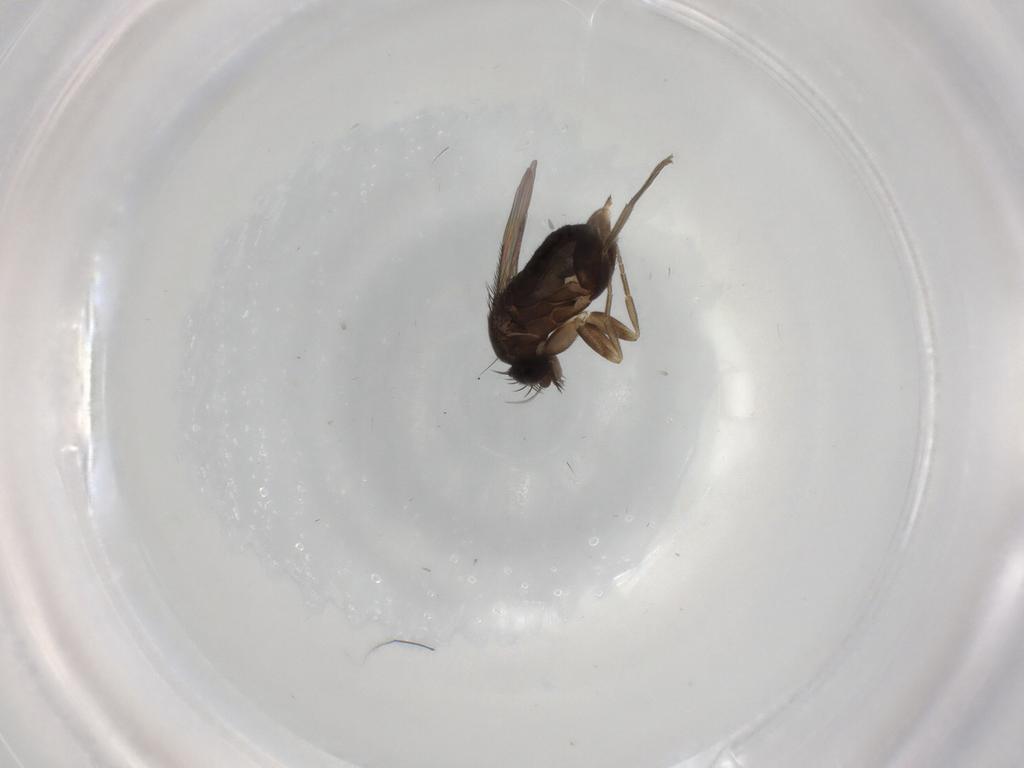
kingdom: Animalia
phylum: Arthropoda
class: Insecta
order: Diptera
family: Phoridae
